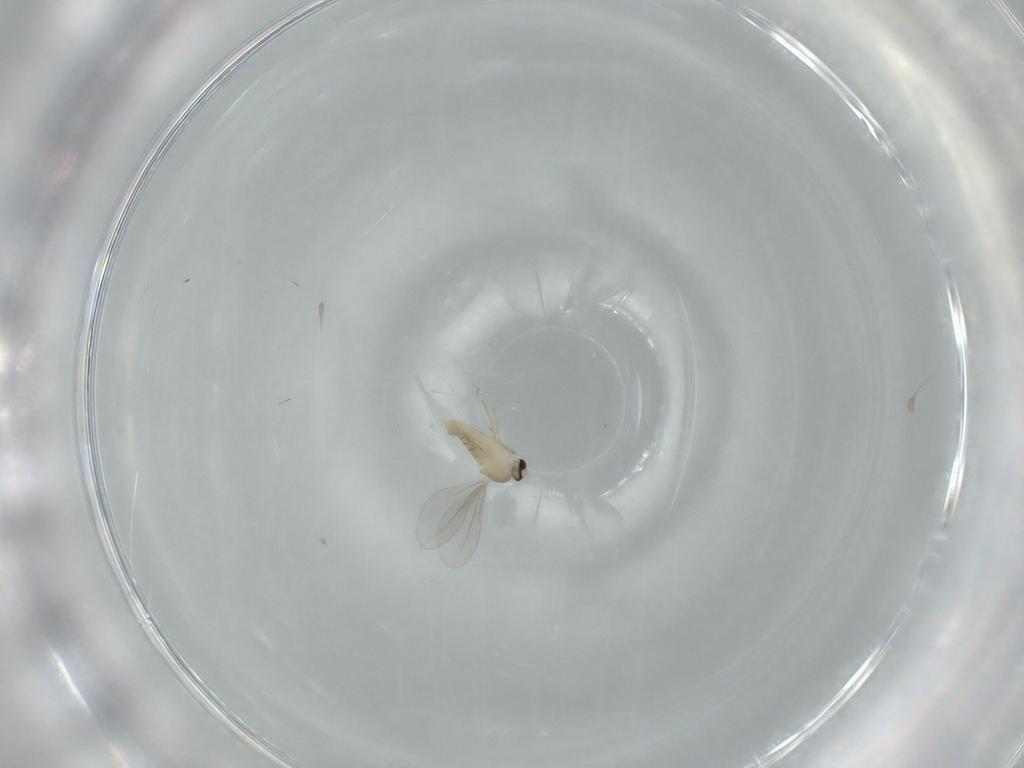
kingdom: Animalia
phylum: Arthropoda
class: Insecta
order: Diptera
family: Cecidomyiidae
